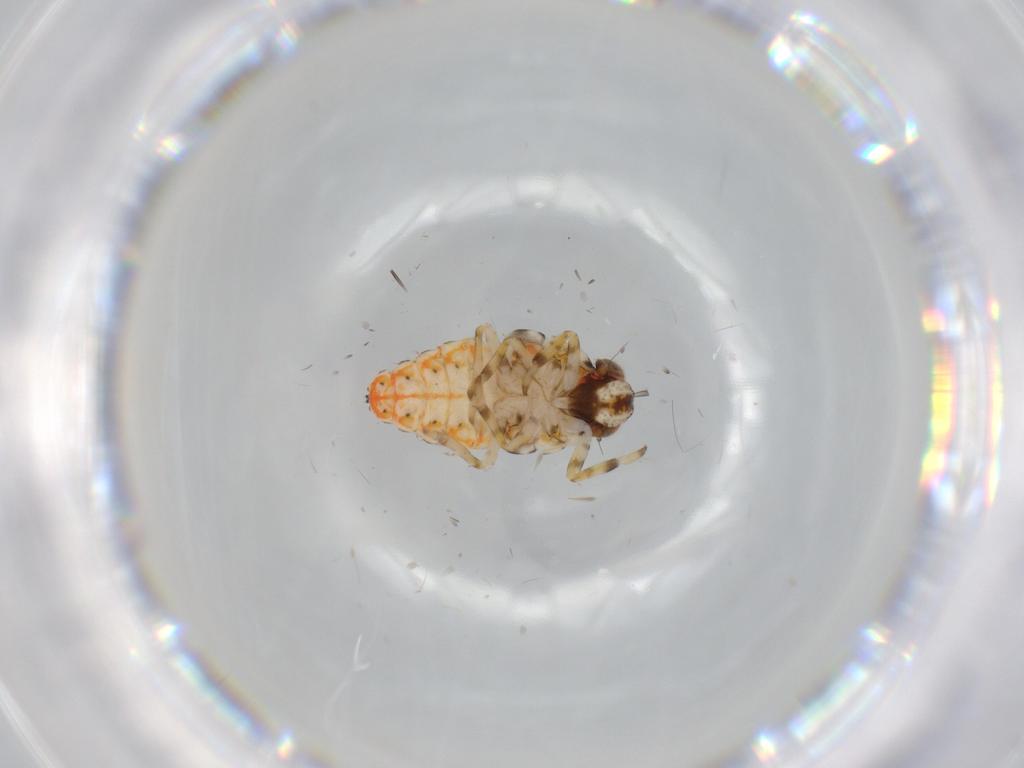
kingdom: Animalia
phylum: Arthropoda
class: Insecta
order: Hemiptera
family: Issidae
